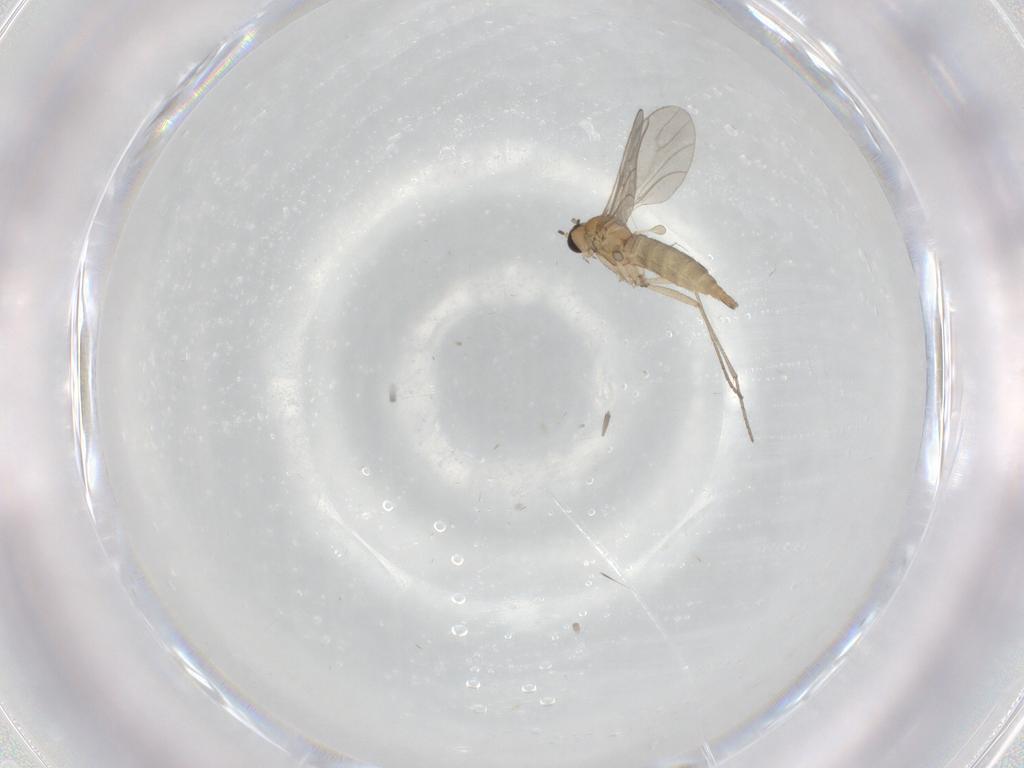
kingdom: Animalia
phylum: Arthropoda
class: Insecta
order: Diptera
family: Sciaridae
